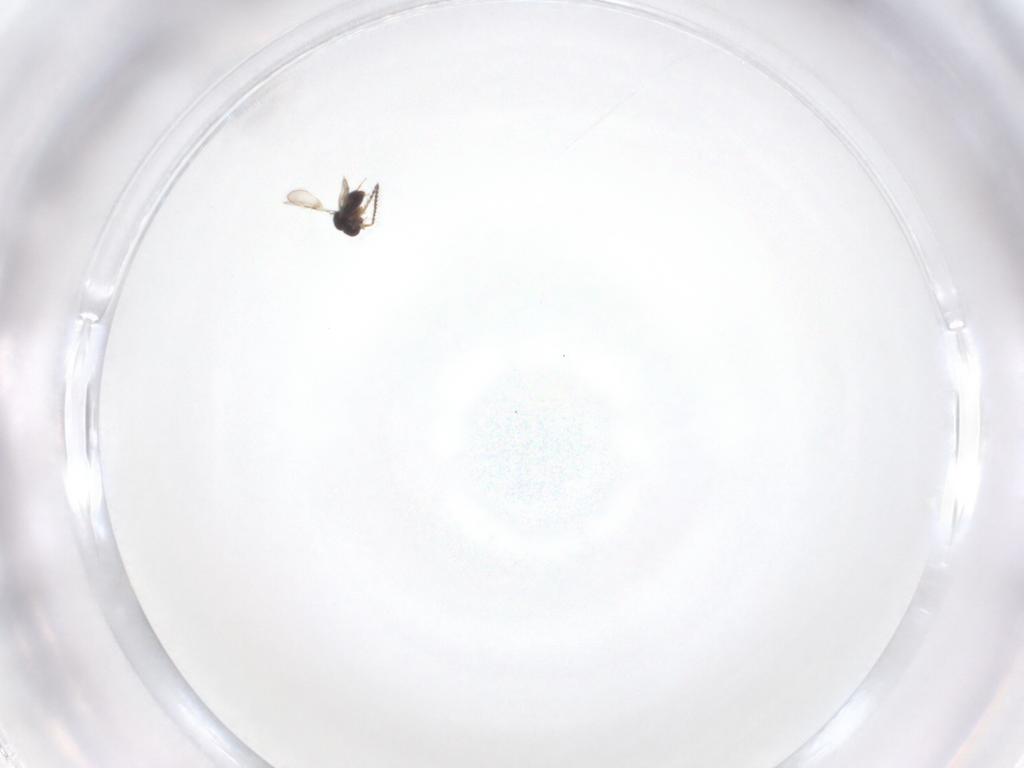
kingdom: Animalia
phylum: Arthropoda
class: Insecta
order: Hymenoptera
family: Ceraphronidae
